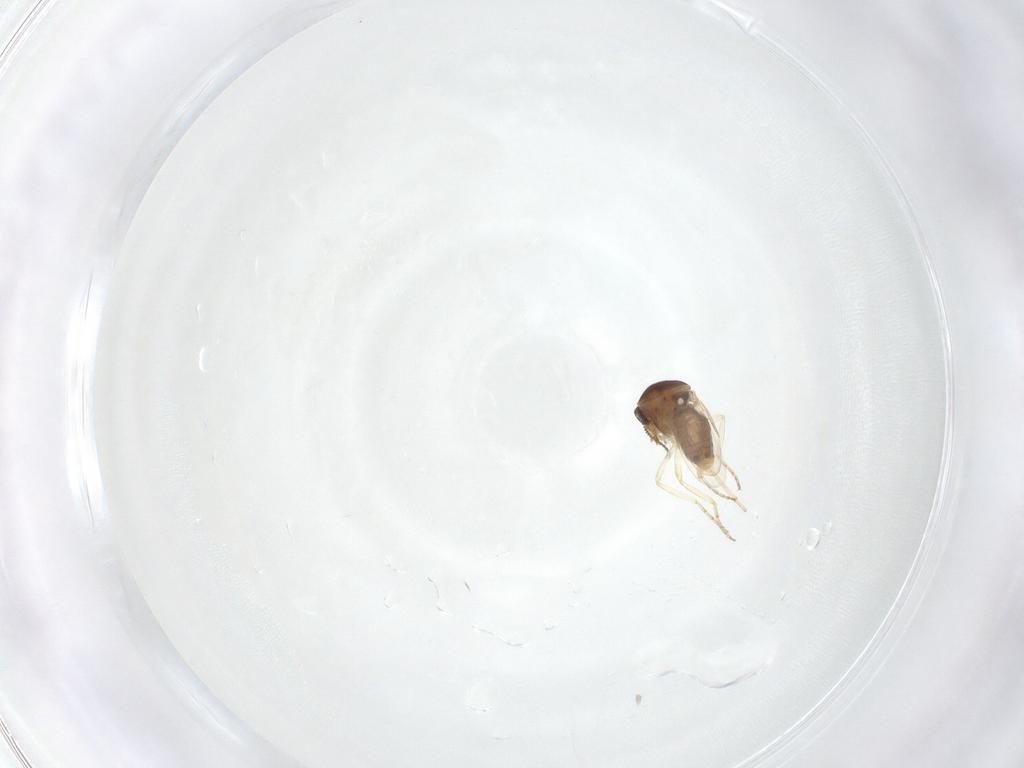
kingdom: Animalia
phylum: Arthropoda
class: Insecta
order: Diptera
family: Ceratopogonidae
